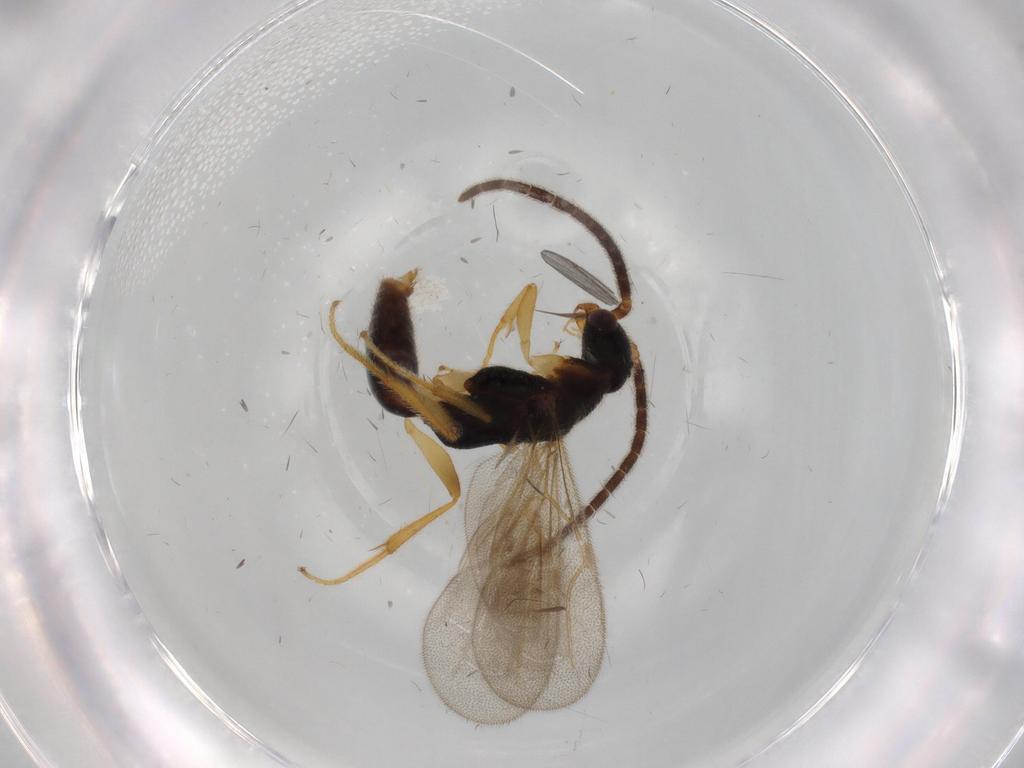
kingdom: Animalia
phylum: Arthropoda
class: Insecta
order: Hymenoptera
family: Bethylidae
